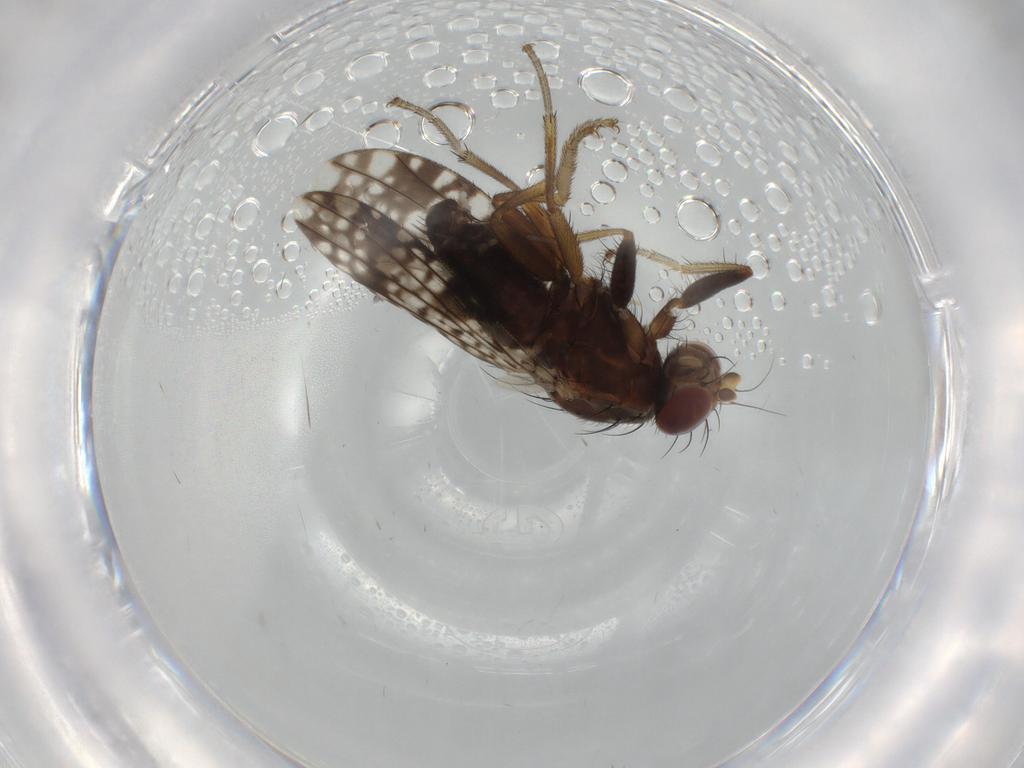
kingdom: Animalia
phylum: Arthropoda
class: Insecta
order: Diptera
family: Tephritidae
